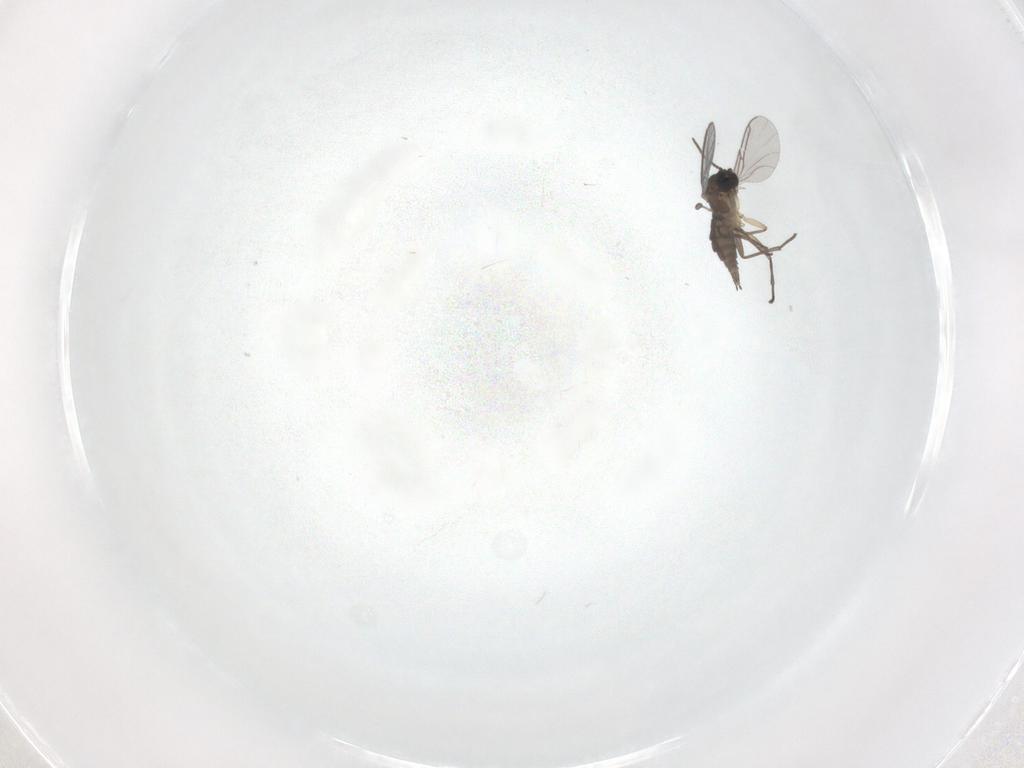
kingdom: Animalia
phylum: Arthropoda
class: Insecta
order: Diptera
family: Sciaridae
